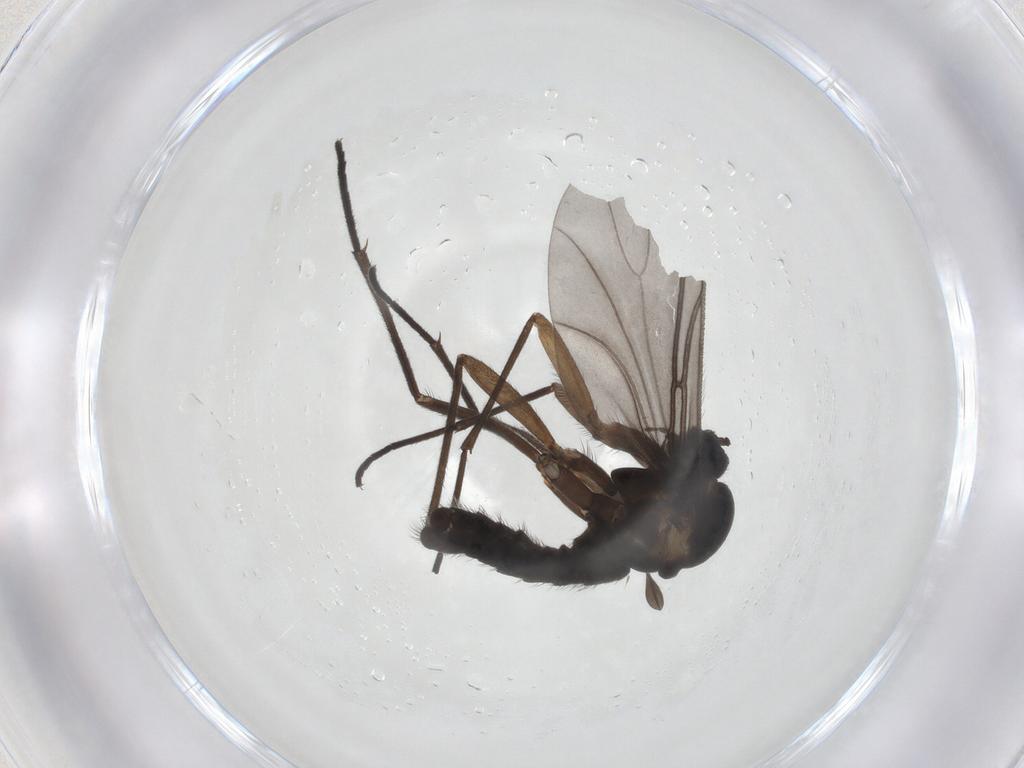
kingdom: Animalia
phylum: Arthropoda
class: Insecta
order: Diptera
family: Sciaridae
